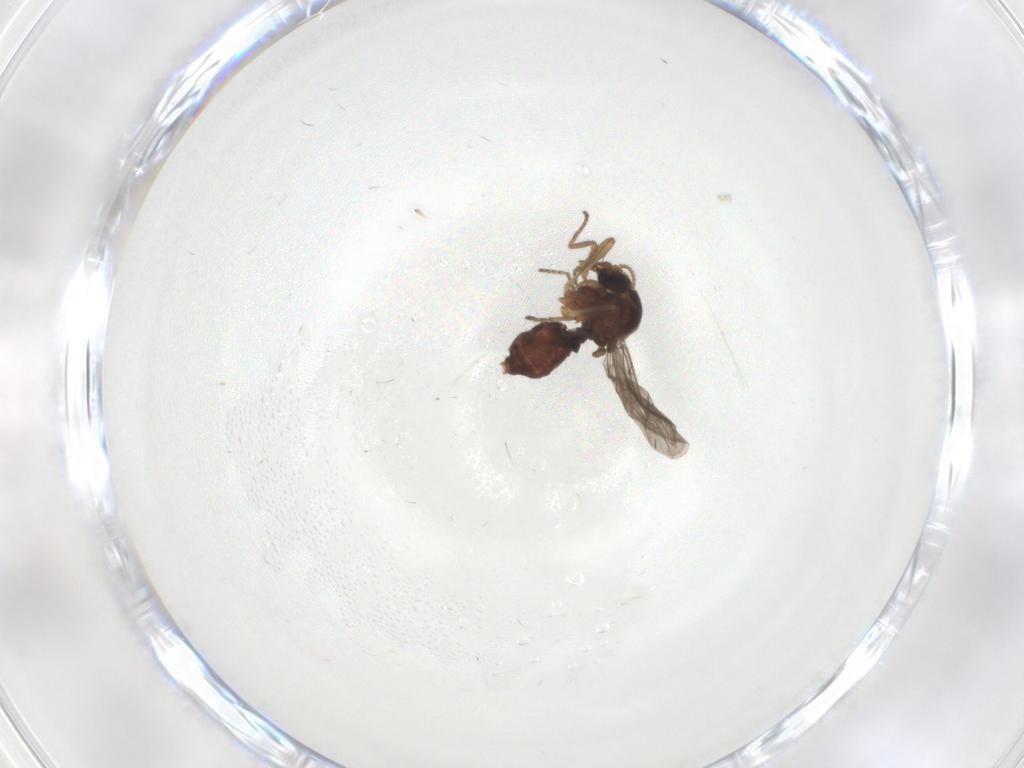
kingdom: Animalia
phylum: Arthropoda
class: Insecta
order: Diptera
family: Ceratopogonidae
